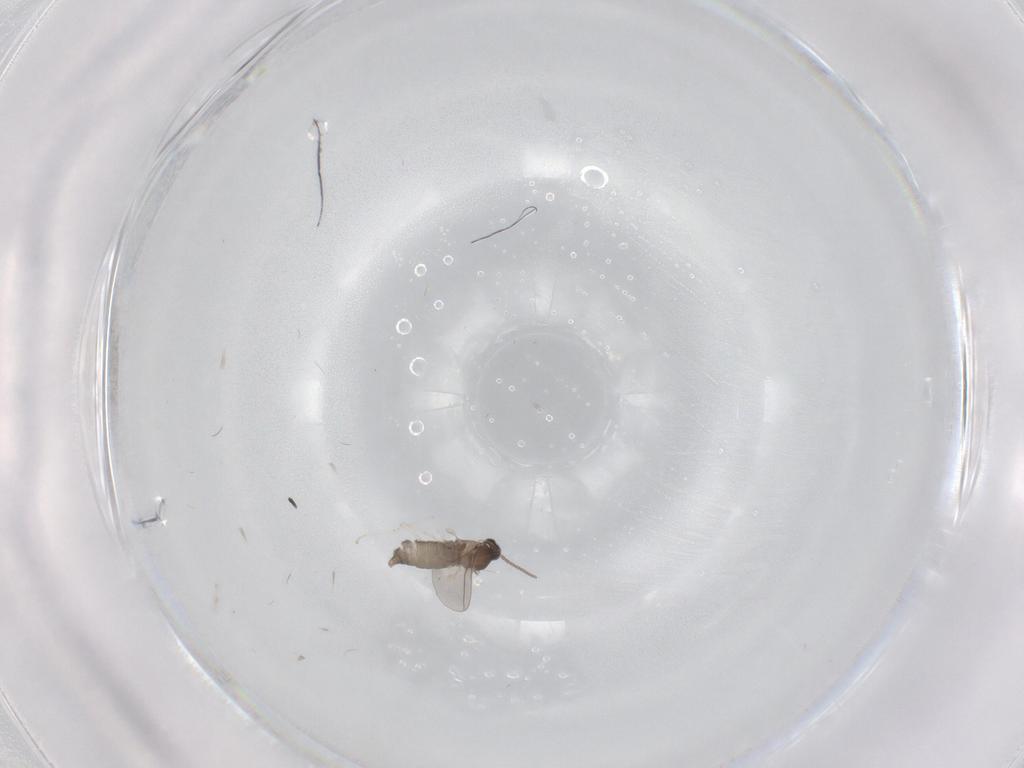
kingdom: Animalia
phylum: Arthropoda
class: Insecta
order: Diptera
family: Cecidomyiidae
